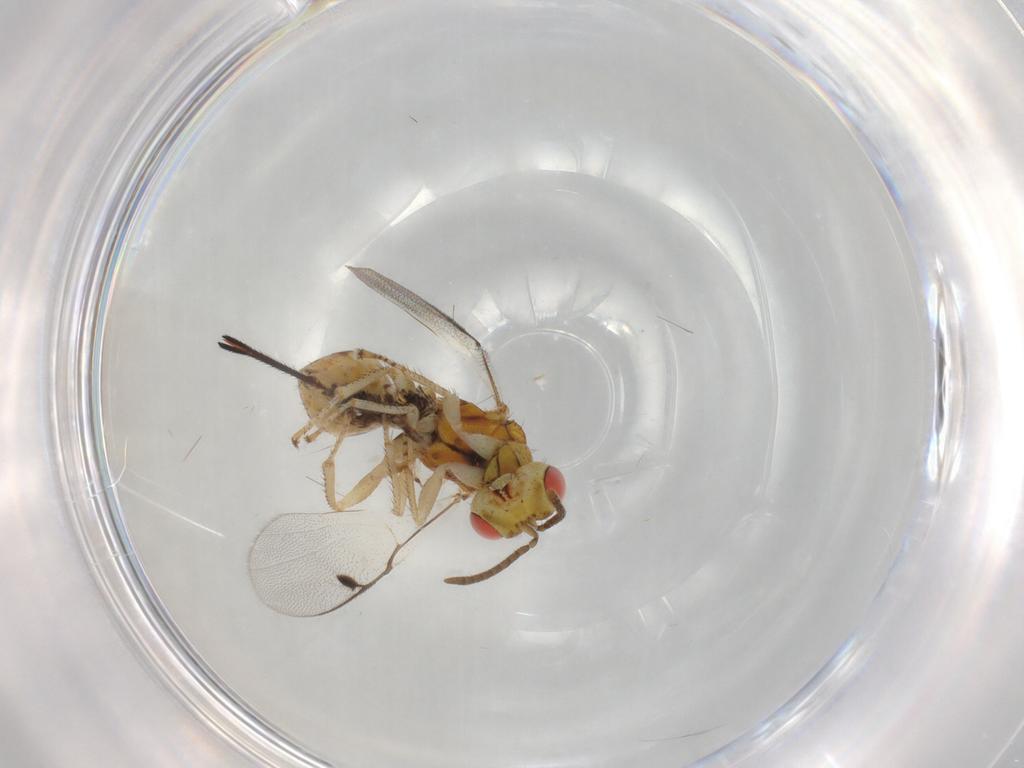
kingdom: Animalia
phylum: Arthropoda
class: Insecta
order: Hymenoptera
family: Megastigmidae
